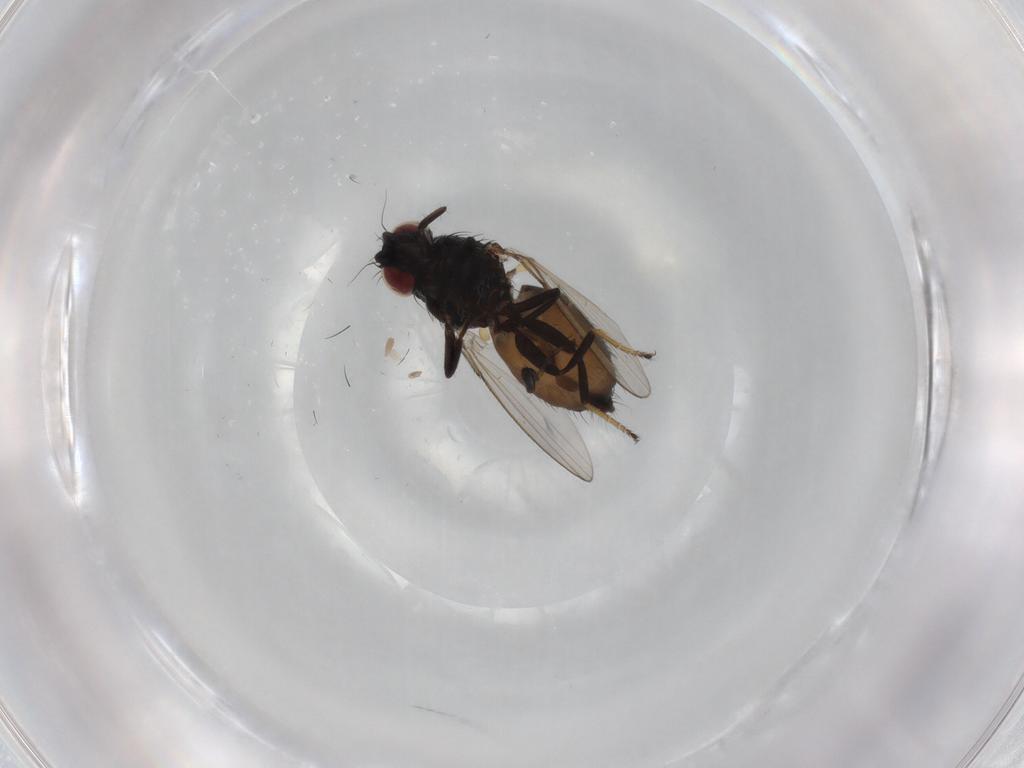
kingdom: Animalia
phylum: Arthropoda
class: Insecta
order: Diptera
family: Milichiidae
